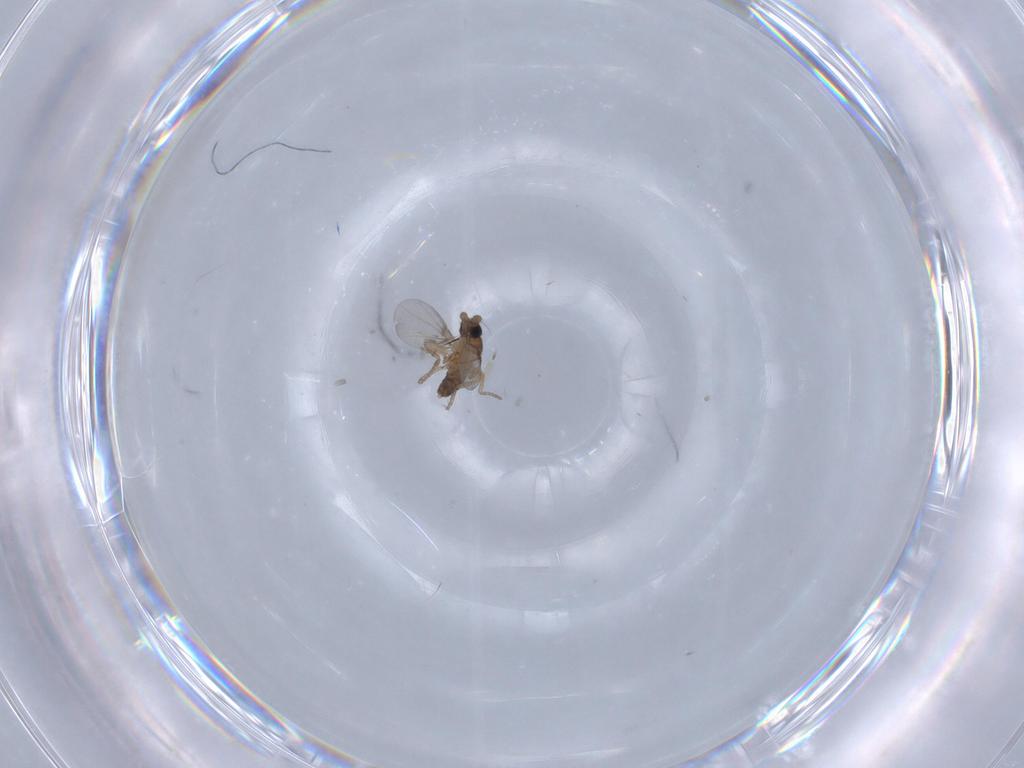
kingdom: Animalia
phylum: Arthropoda
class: Insecta
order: Diptera
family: Phoridae
